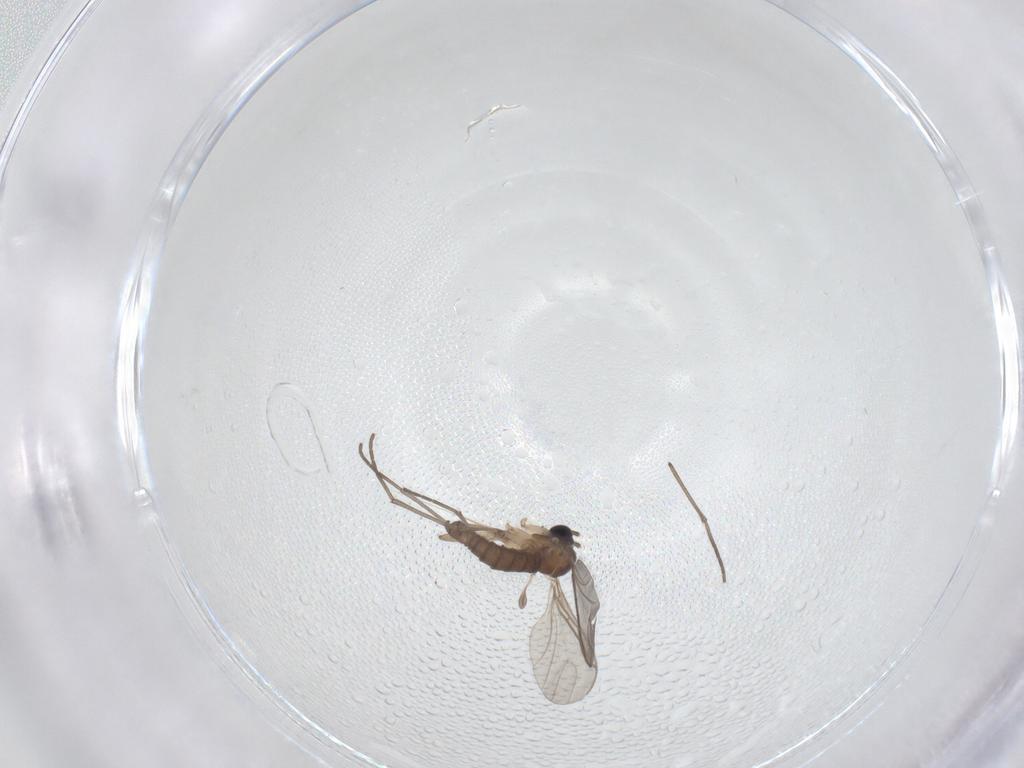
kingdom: Animalia
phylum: Arthropoda
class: Insecta
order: Diptera
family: Sciaridae
